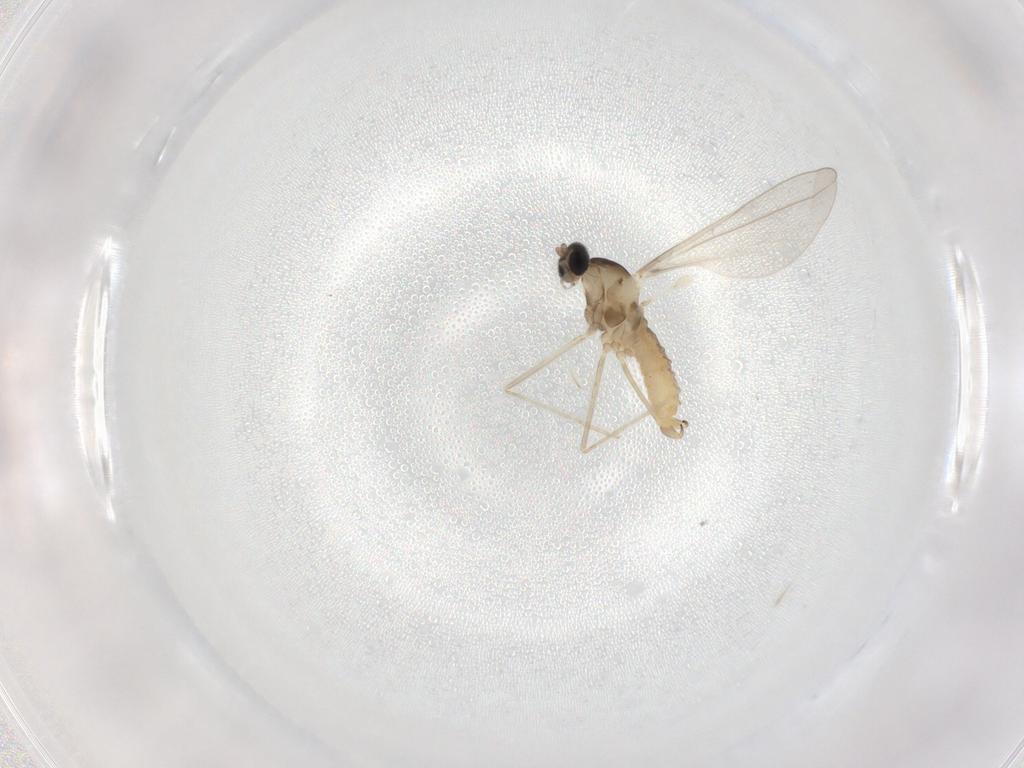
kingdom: Animalia
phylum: Arthropoda
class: Insecta
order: Diptera
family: Cecidomyiidae
